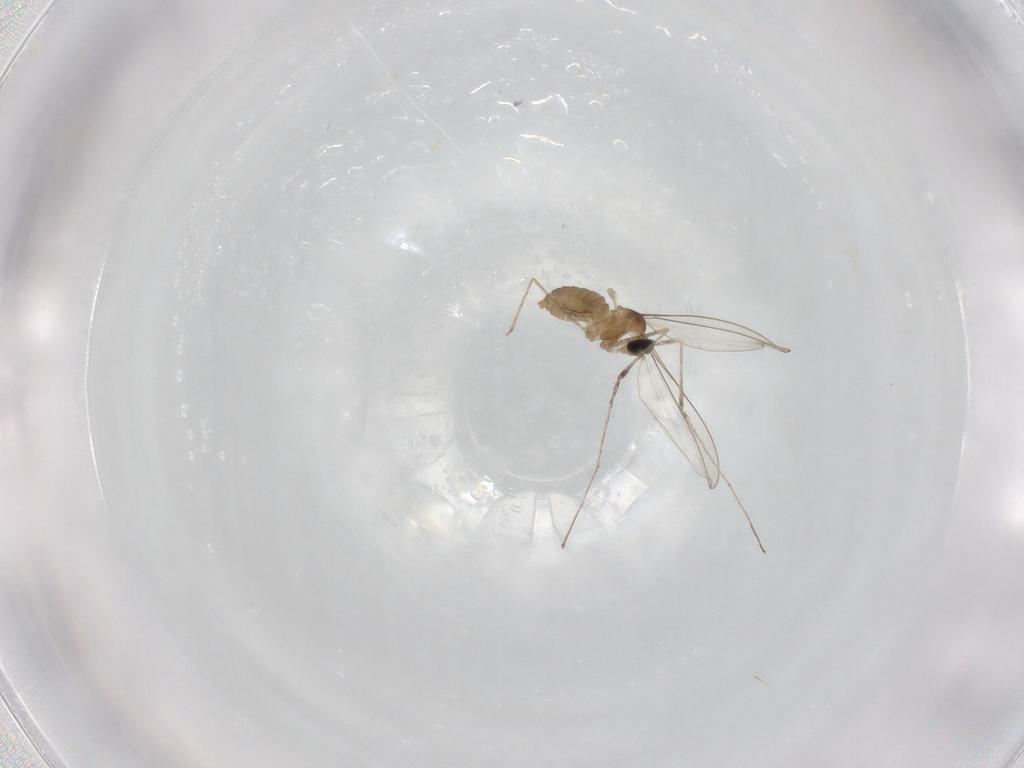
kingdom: Animalia
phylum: Arthropoda
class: Insecta
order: Diptera
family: Cecidomyiidae
